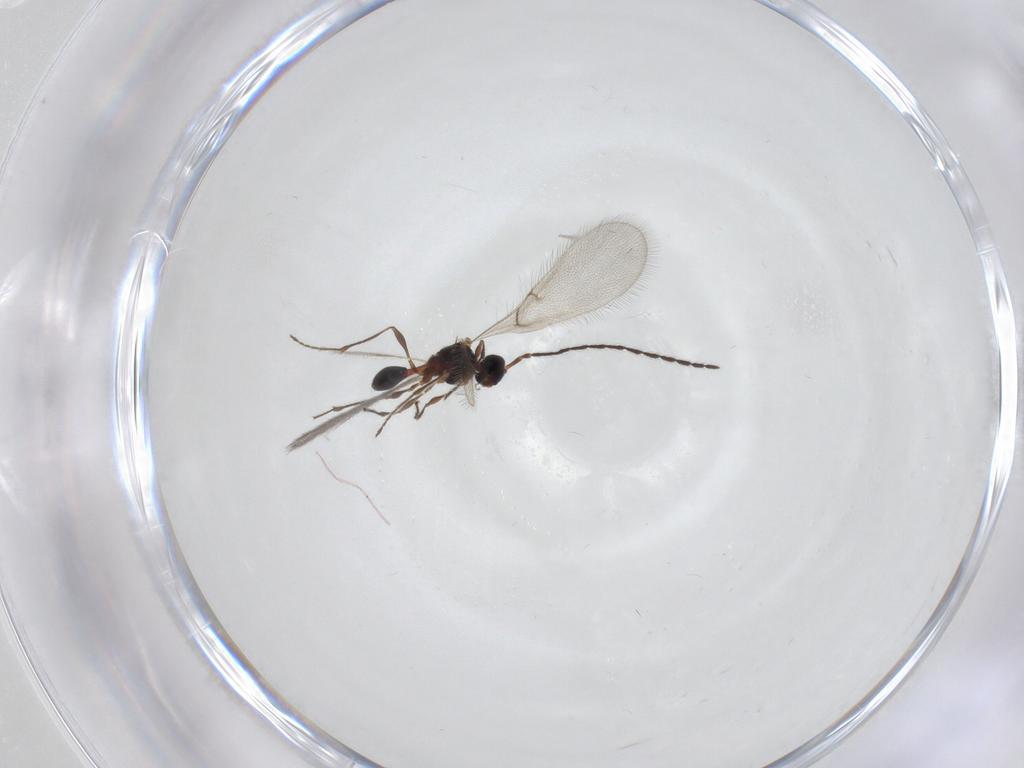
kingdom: Animalia
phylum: Arthropoda
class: Insecta
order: Hymenoptera
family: Diapriidae
